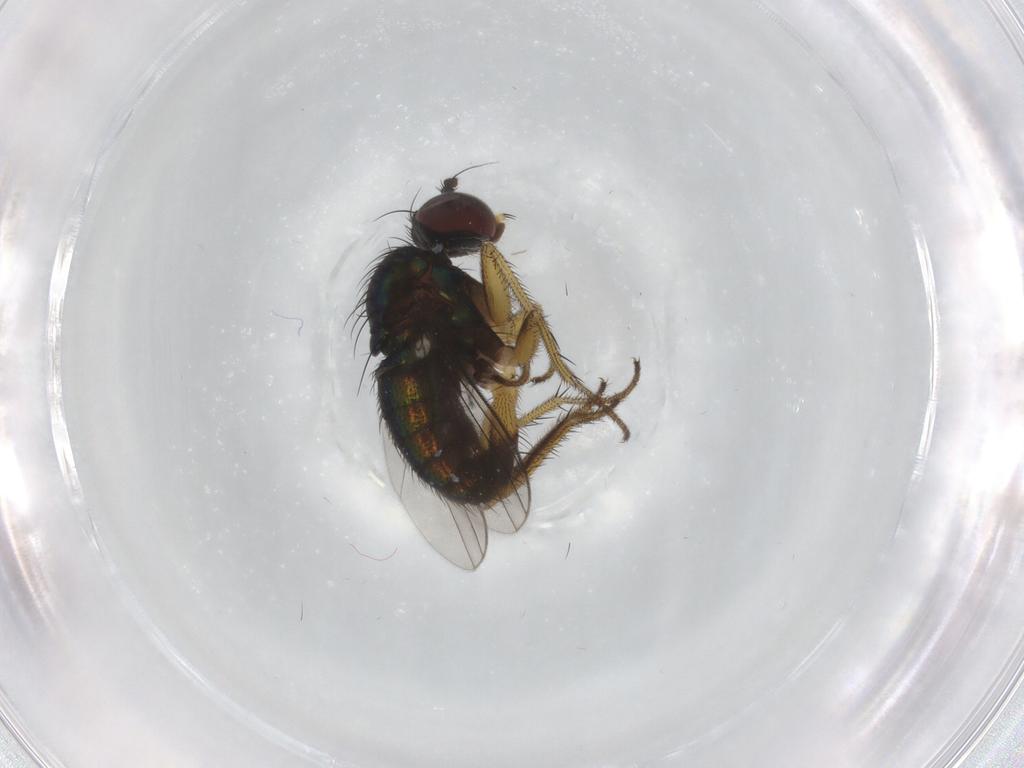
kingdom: Animalia
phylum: Arthropoda
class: Insecta
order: Diptera
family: Dolichopodidae
